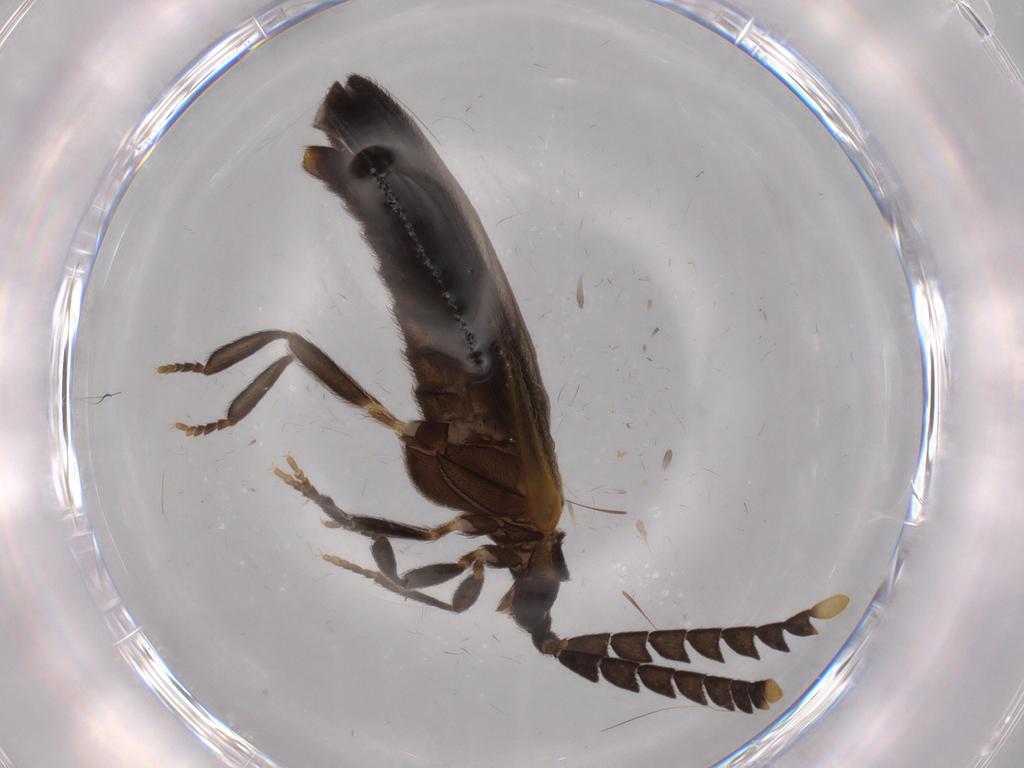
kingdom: Animalia
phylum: Arthropoda
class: Insecta
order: Coleoptera
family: Lycidae
